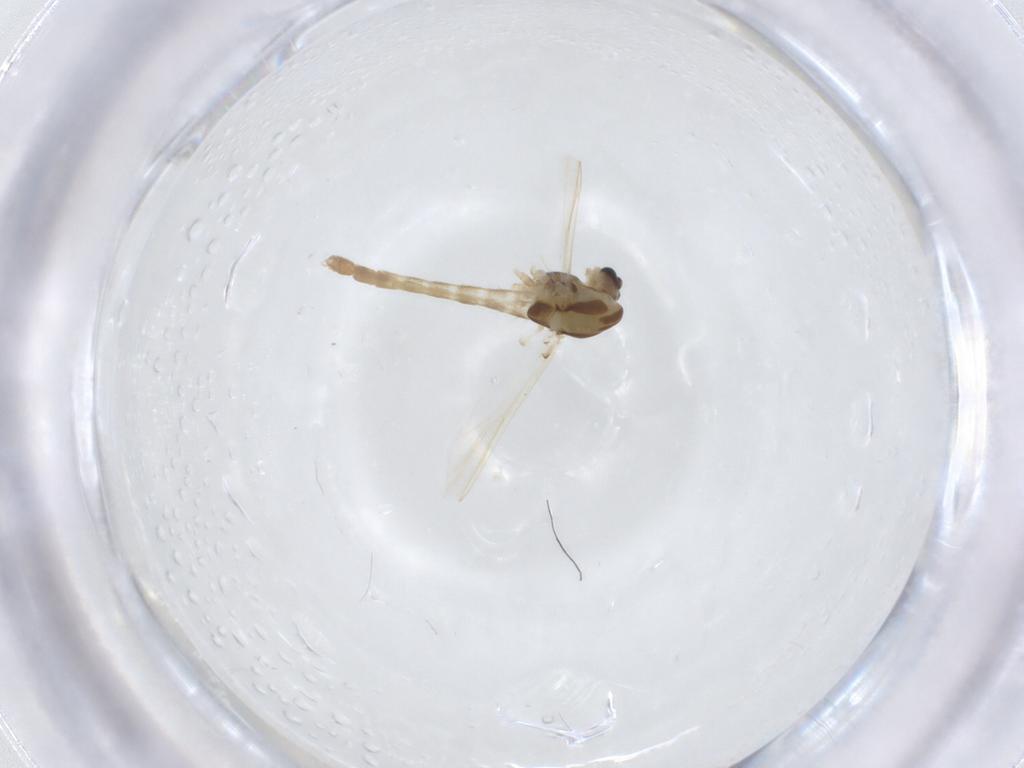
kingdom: Animalia
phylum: Arthropoda
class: Insecta
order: Diptera
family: Chironomidae
